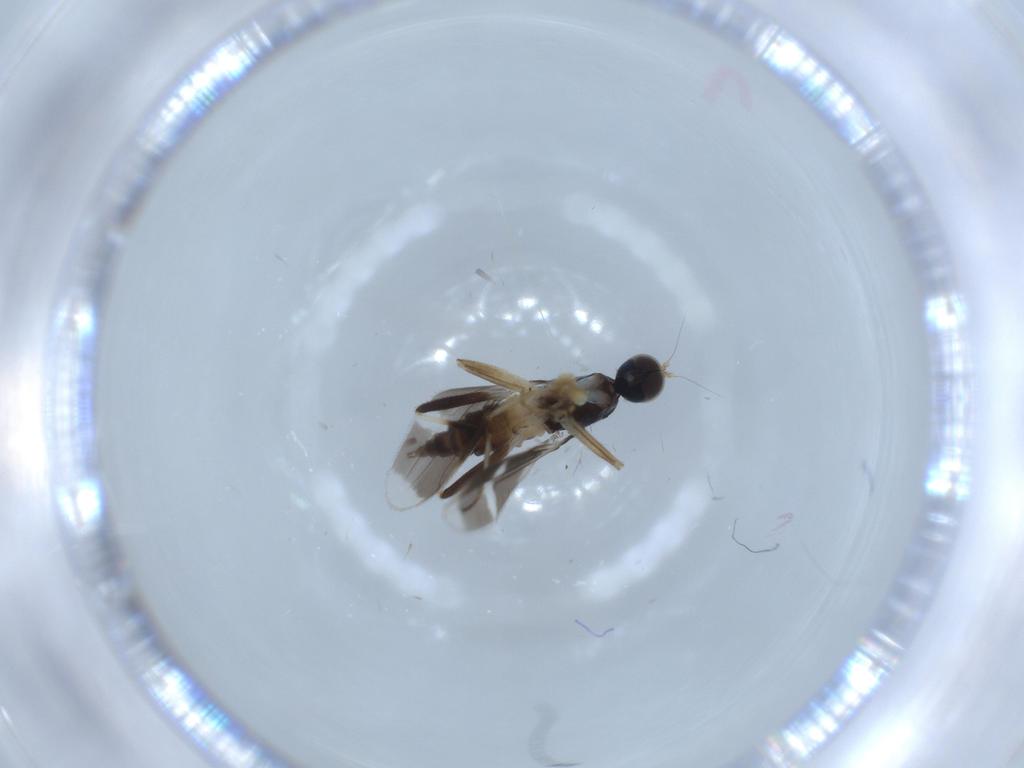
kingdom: Animalia
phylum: Arthropoda
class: Insecta
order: Diptera
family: Hybotidae
